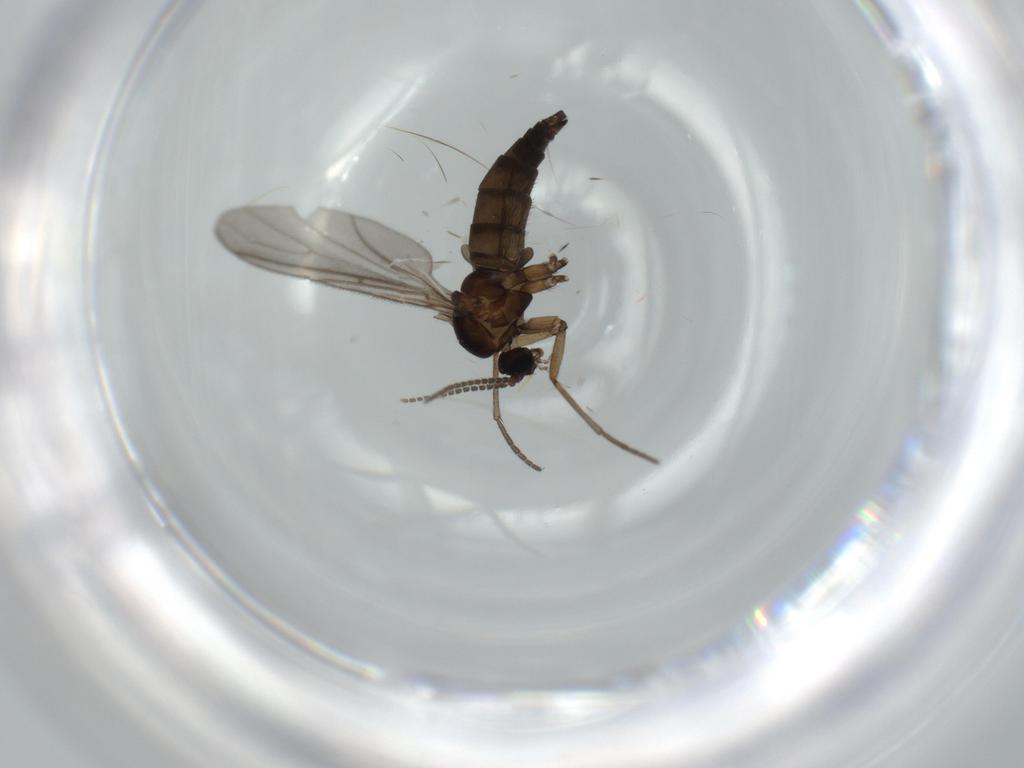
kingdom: Animalia
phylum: Arthropoda
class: Insecta
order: Diptera
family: Sciaridae
